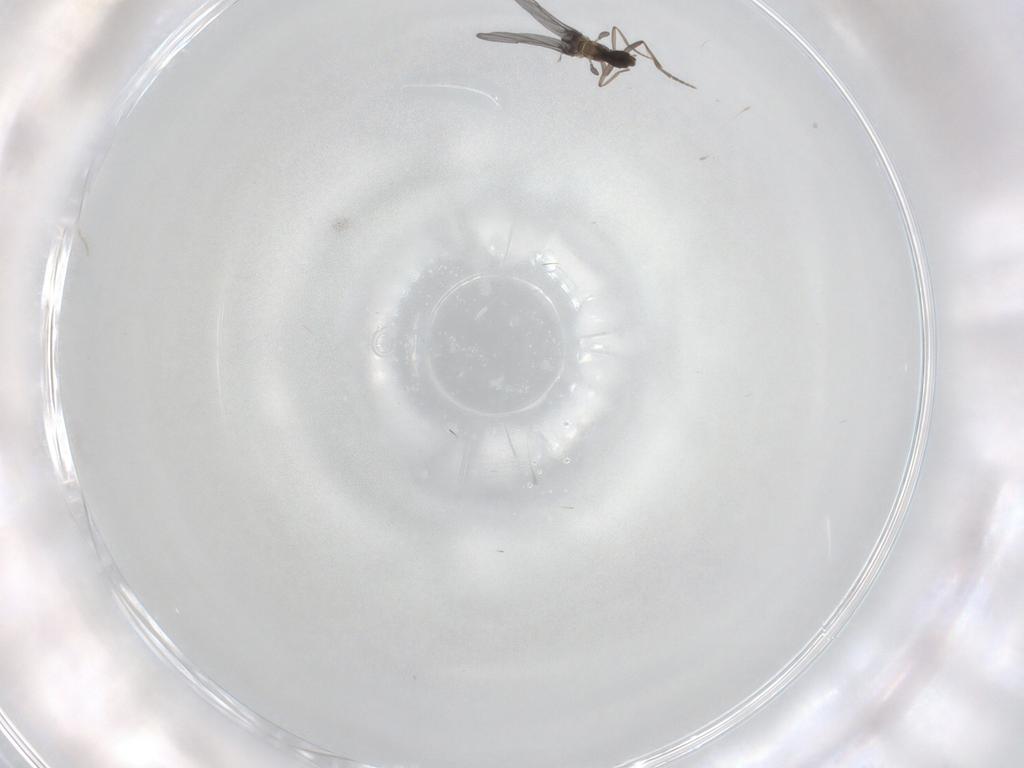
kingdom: Animalia
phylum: Arthropoda
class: Insecta
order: Diptera
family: Phoridae
